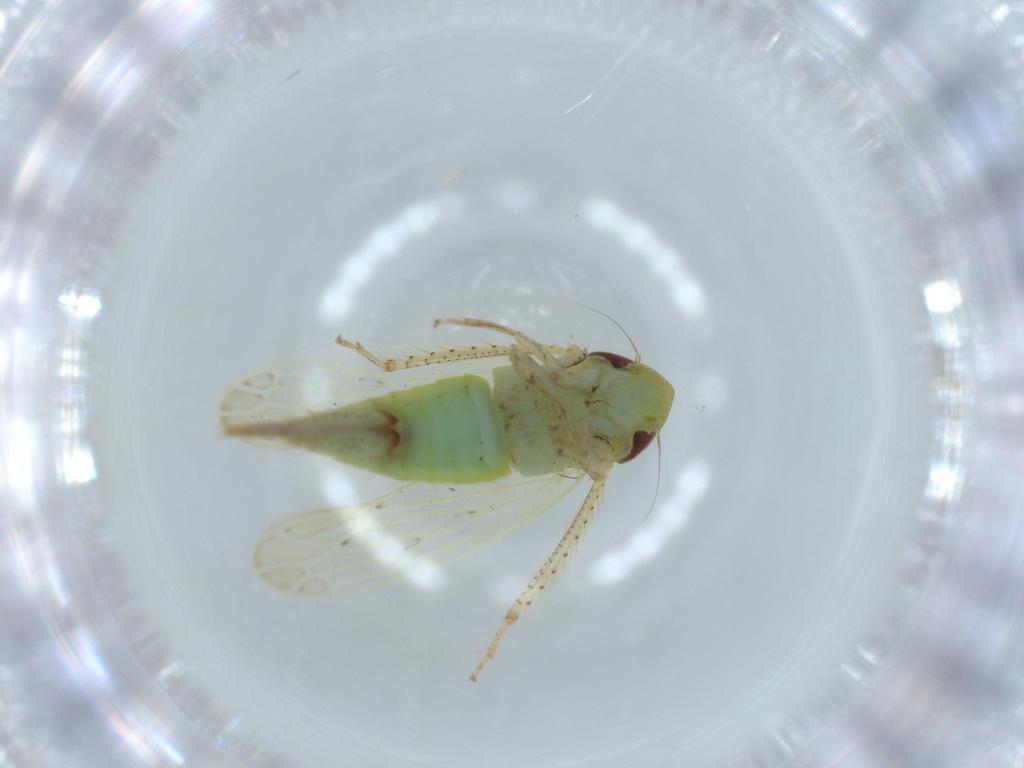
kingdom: Animalia
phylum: Arthropoda
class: Insecta
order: Hemiptera
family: Cicadellidae
